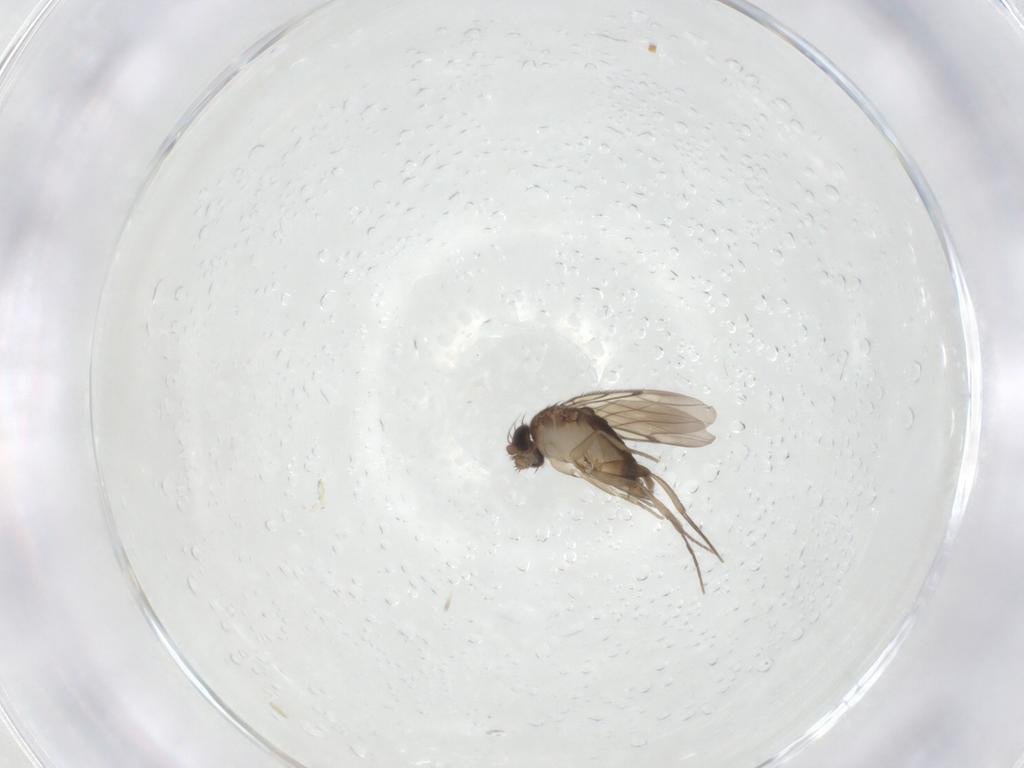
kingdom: Animalia
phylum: Arthropoda
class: Insecta
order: Diptera
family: Phoridae
